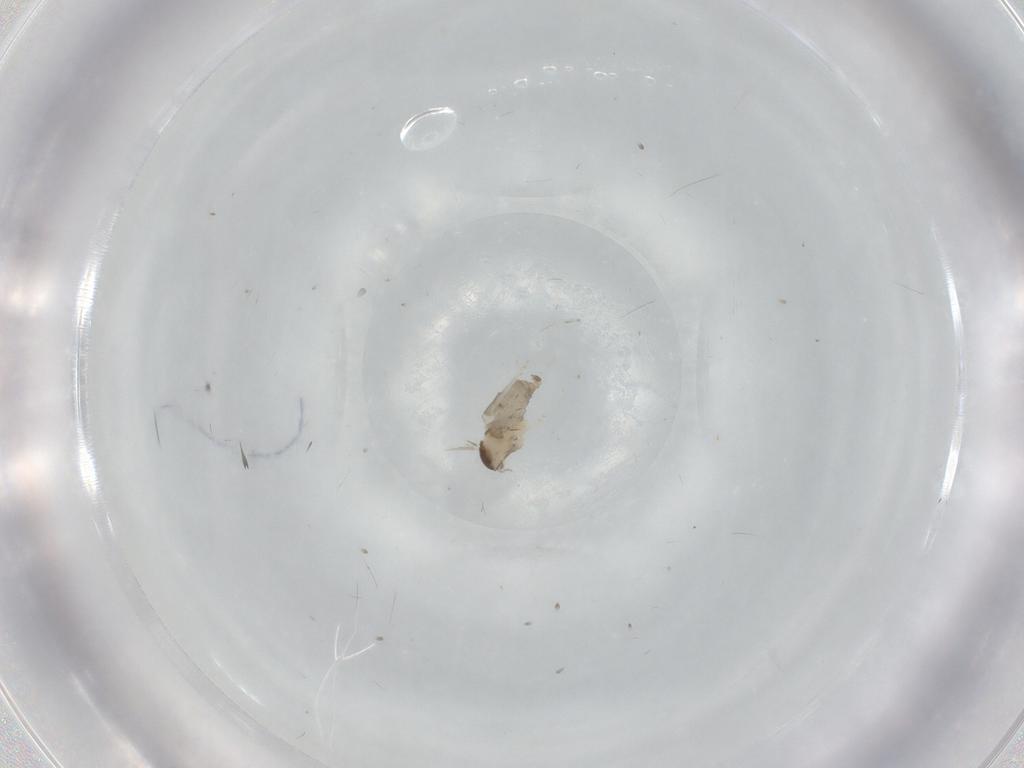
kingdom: Animalia
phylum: Arthropoda
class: Insecta
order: Diptera
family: Cecidomyiidae
